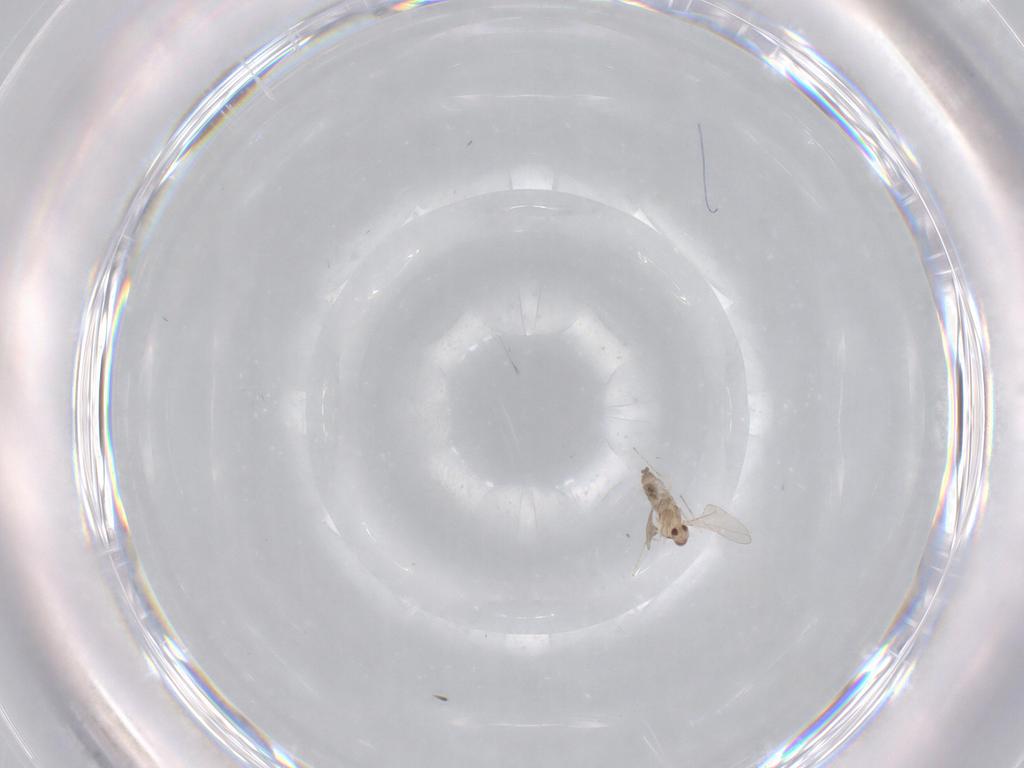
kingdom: Animalia
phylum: Arthropoda
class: Insecta
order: Diptera
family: Cecidomyiidae
